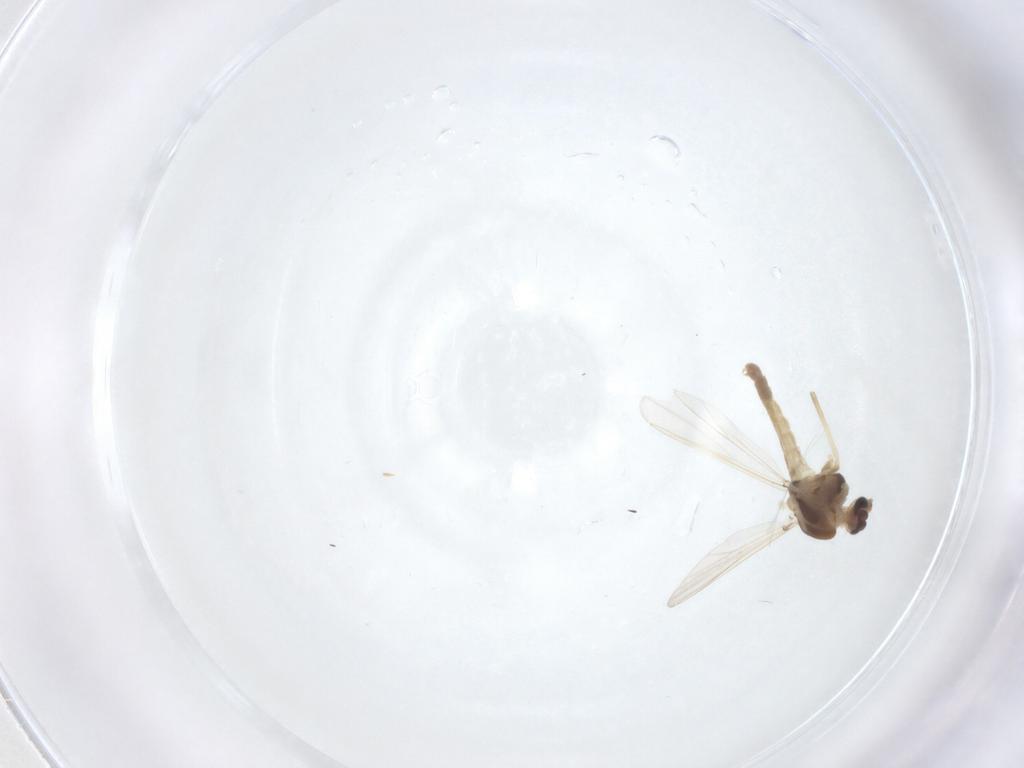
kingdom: Animalia
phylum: Arthropoda
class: Insecta
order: Diptera
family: Chironomidae
